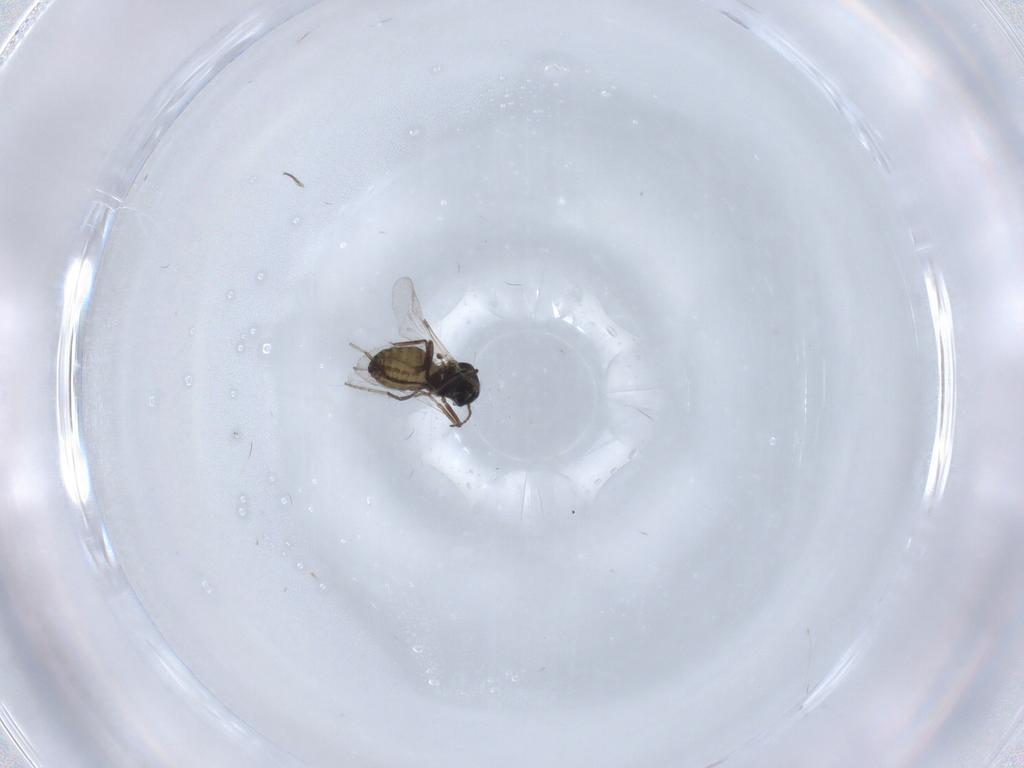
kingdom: Animalia
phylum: Arthropoda
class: Insecta
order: Diptera
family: Ceratopogonidae
